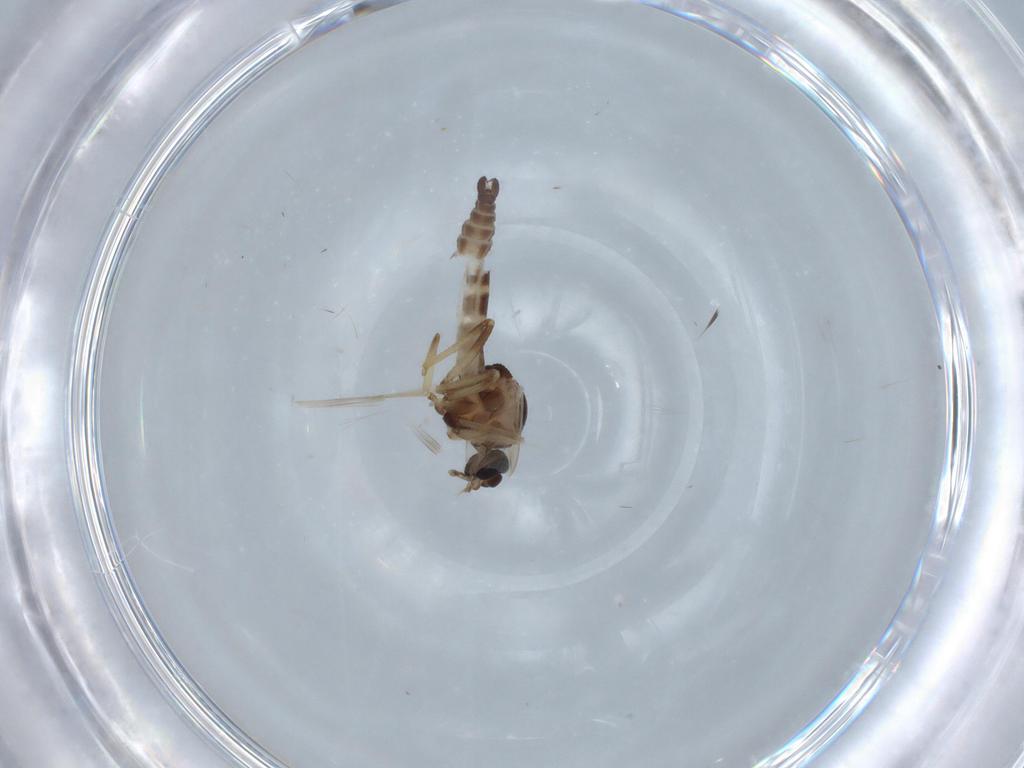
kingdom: Animalia
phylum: Arthropoda
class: Insecta
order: Diptera
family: Ceratopogonidae
